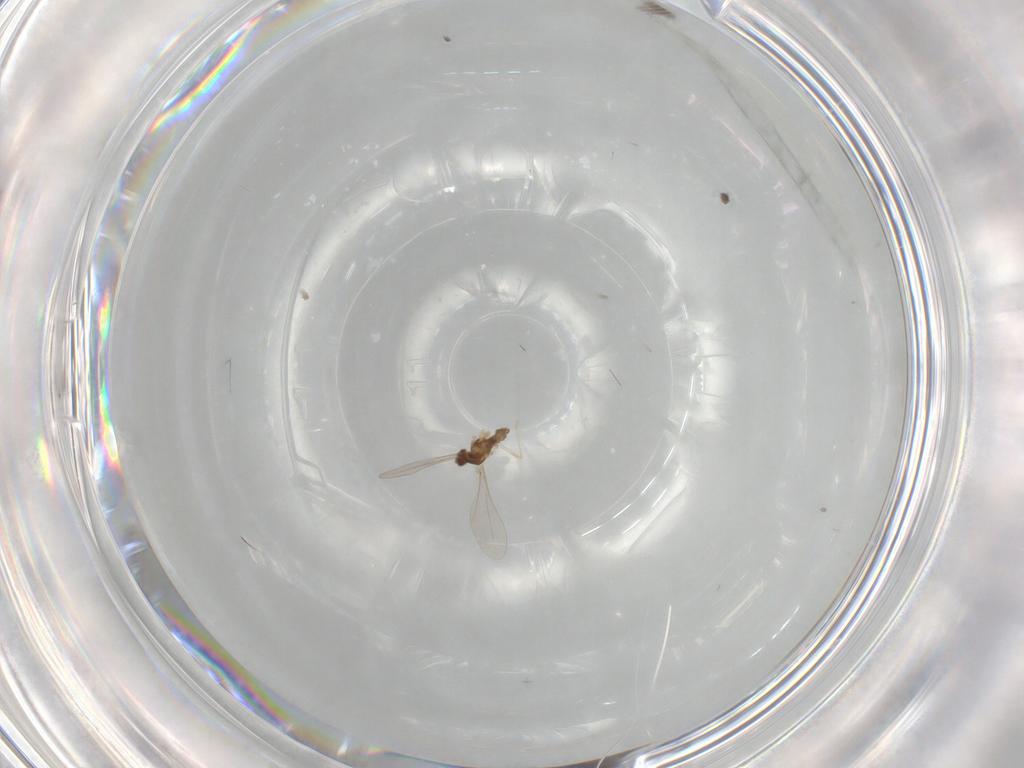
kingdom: Animalia
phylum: Arthropoda
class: Insecta
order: Diptera
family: Cecidomyiidae
